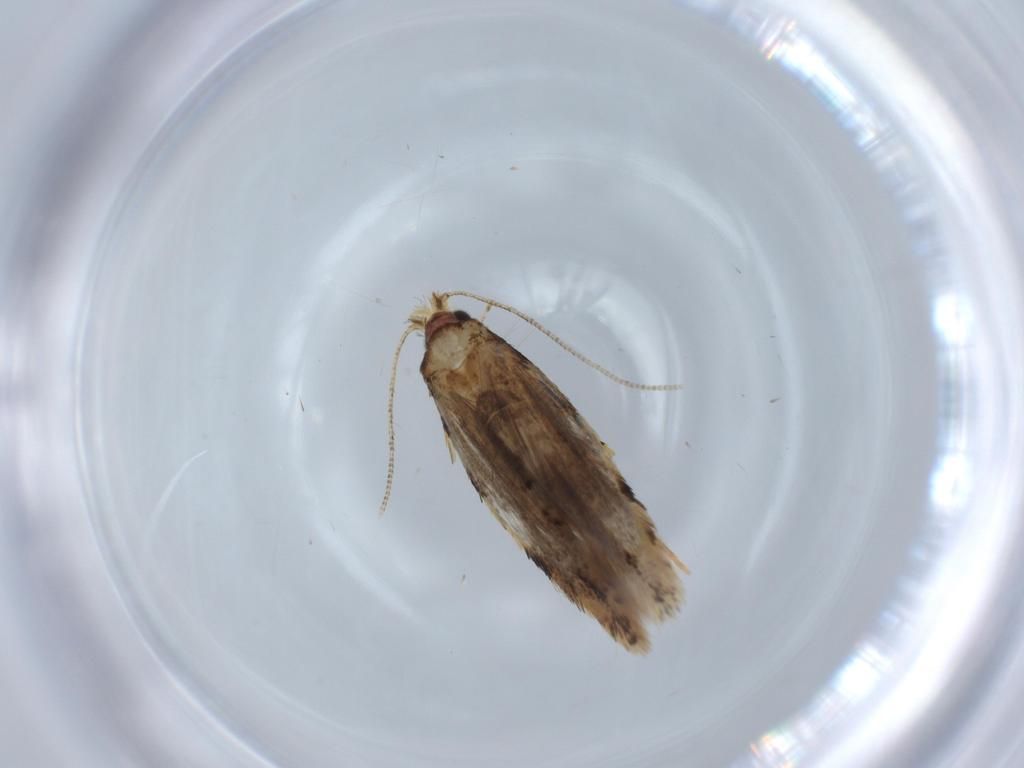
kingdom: Animalia
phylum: Arthropoda
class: Insecta
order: Lepidoptera
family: Tineidae
